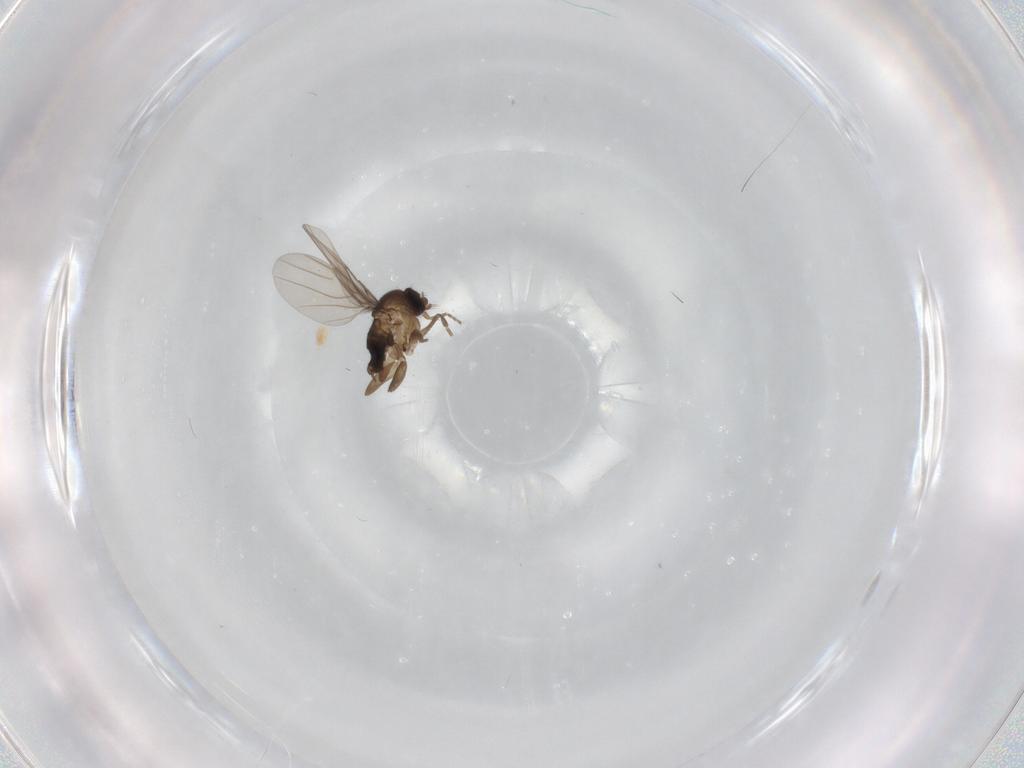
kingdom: Animalia
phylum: Arthropoda
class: Insecta
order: Diptera
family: Phoridae
